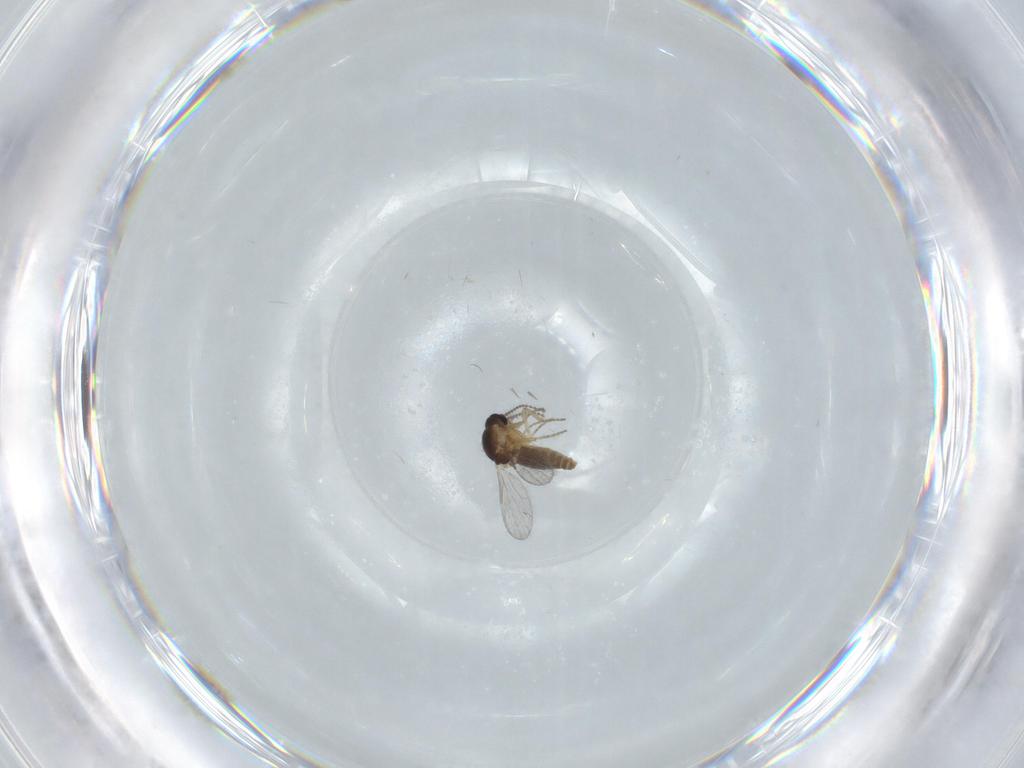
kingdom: Animalia
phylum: Arthropoda
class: Insecta
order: Diptera
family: Ceratopogonidae
